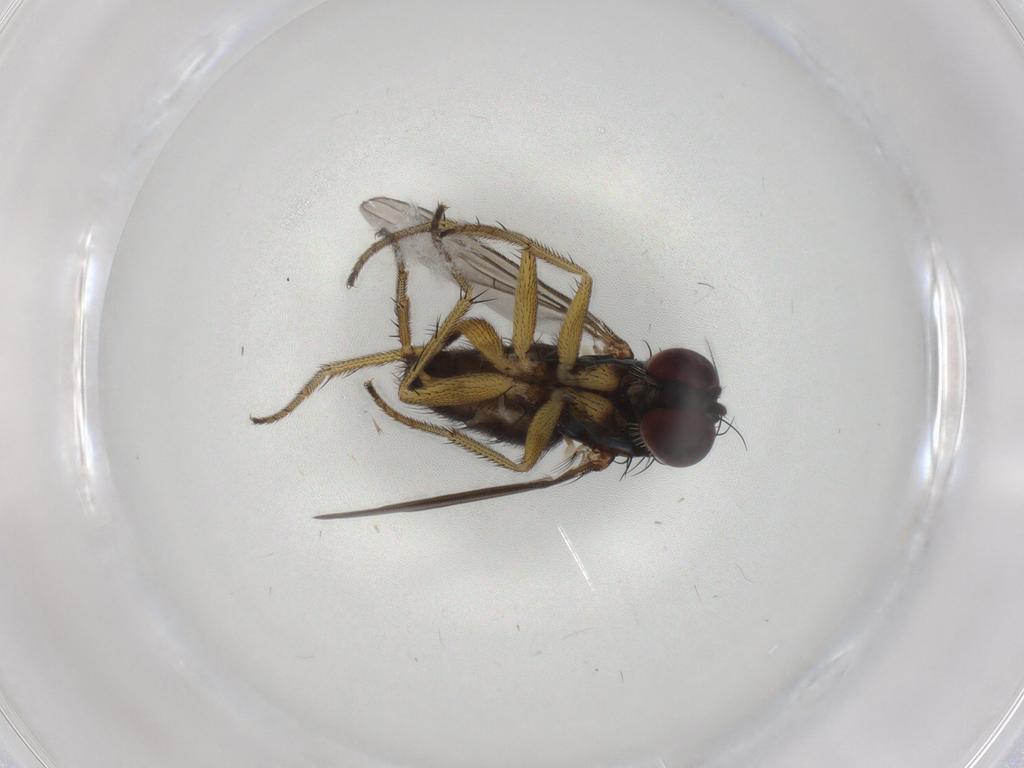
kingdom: Animalia
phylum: Arthropoda
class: Insecta
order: Diptera
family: Dolichopodidae
